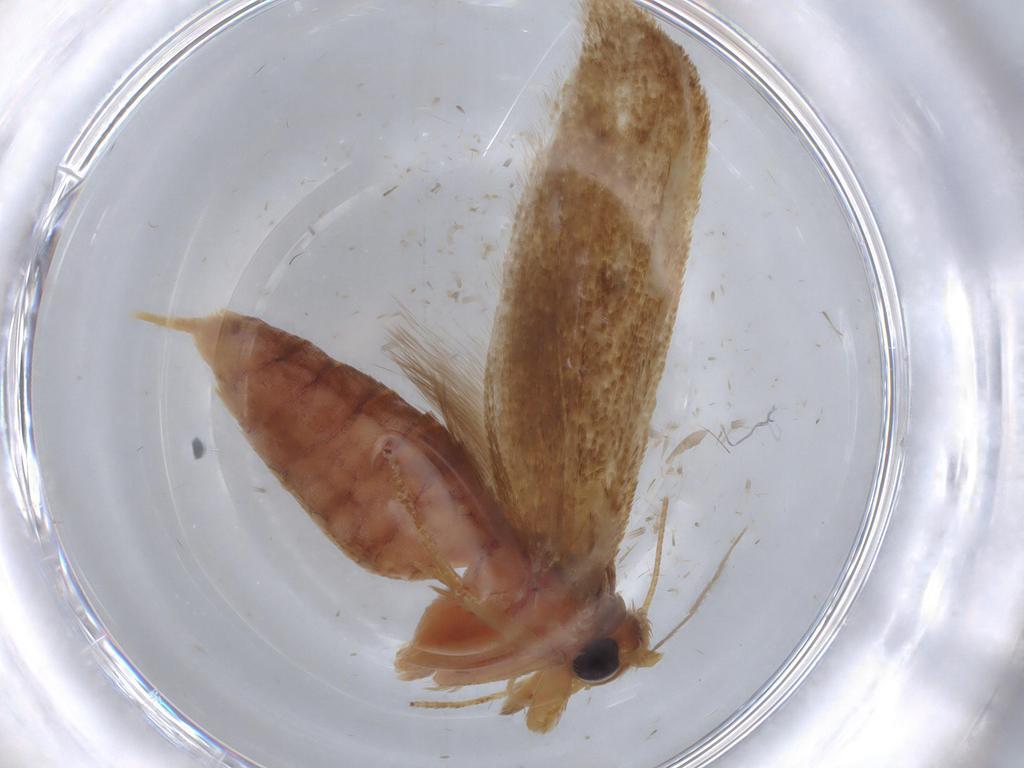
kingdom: Animalia
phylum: Arthropoda
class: Insecta
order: Lepidoptera
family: Blastobasidae
